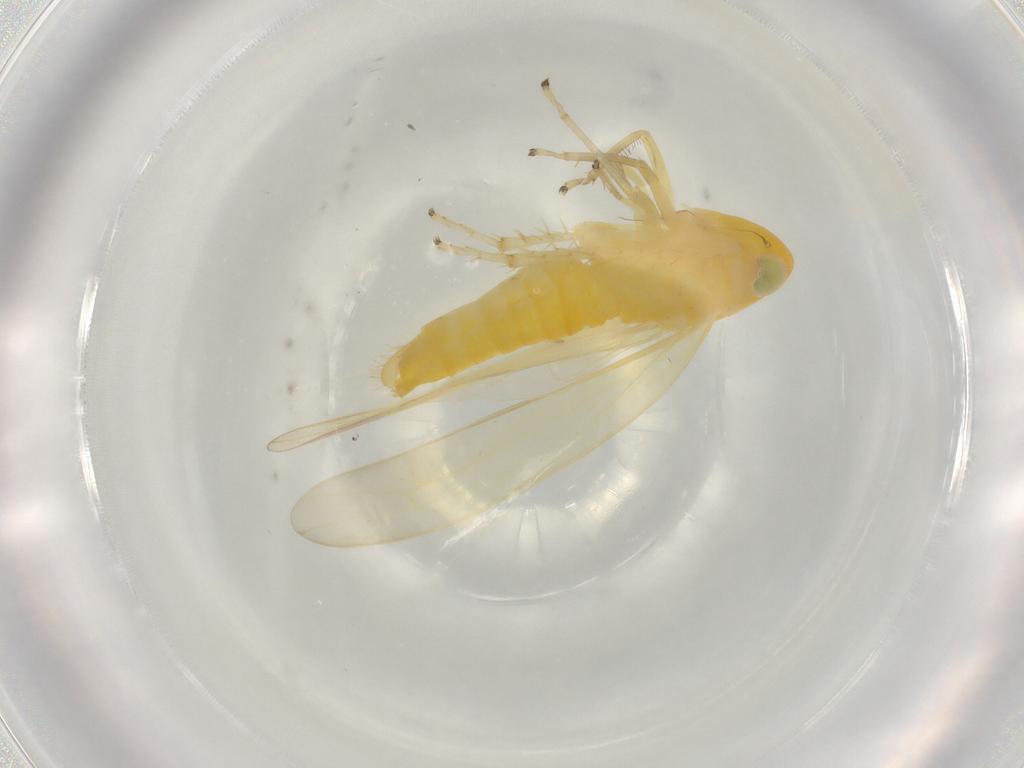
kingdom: Animalia
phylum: Arthropoda
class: Insecta
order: Hemiptera
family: Cicadellidae
